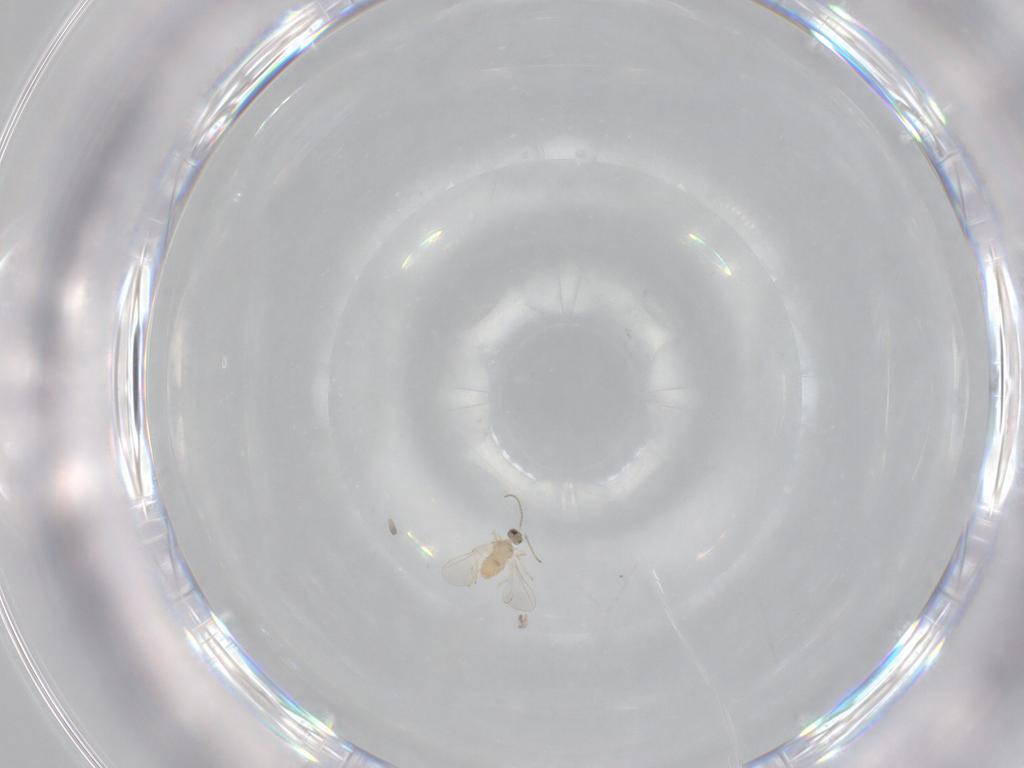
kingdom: Animalia
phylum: Arthropoda
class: Insecta
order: Diptera
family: Cecidomyiidae
